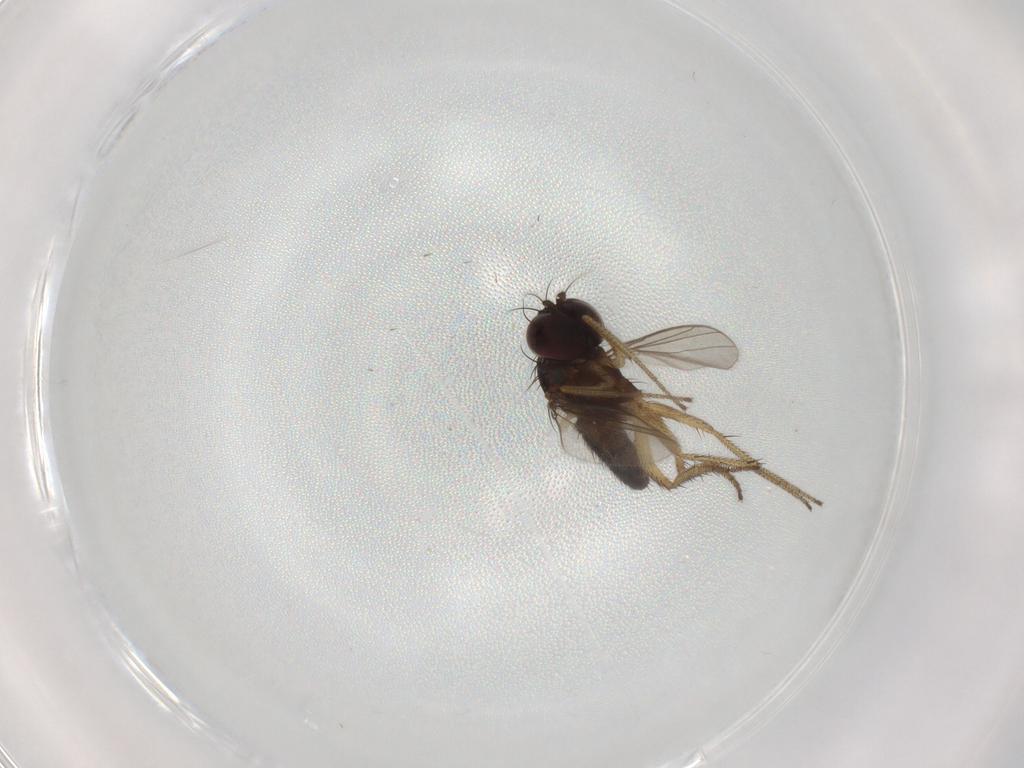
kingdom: Animalia
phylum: Arthropoda
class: Insecta
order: Diptera
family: Dolichopodidae
